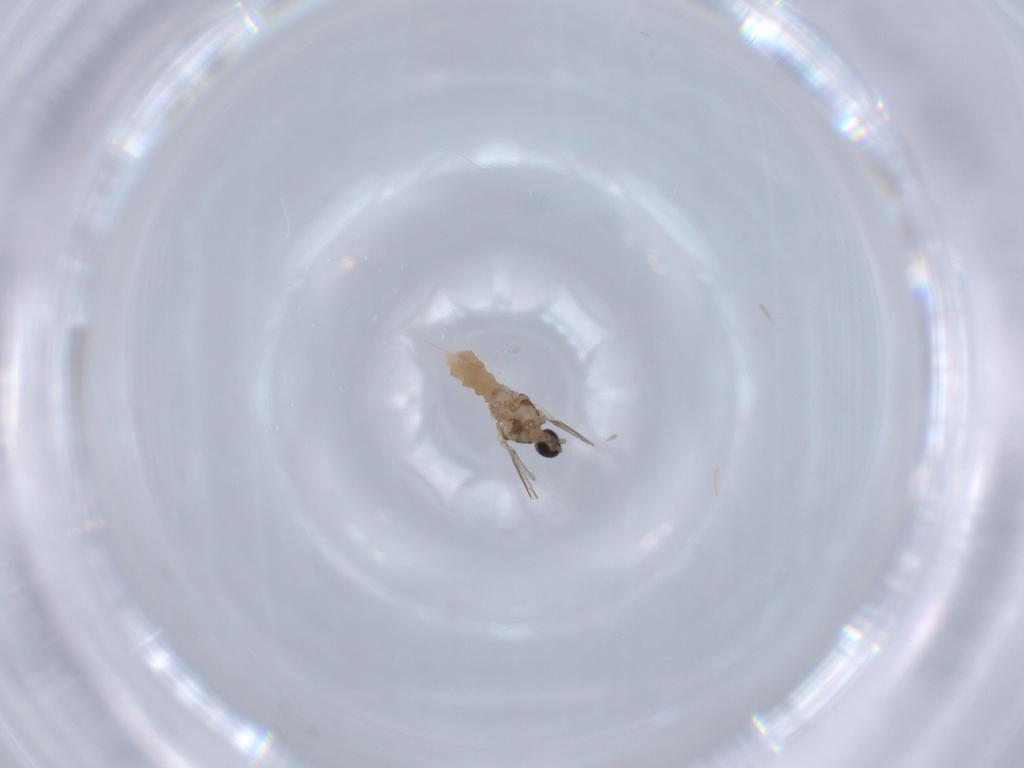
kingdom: Animalia
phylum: Arthropoda
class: Insecta
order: Diptera
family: Cecidomyiidae
